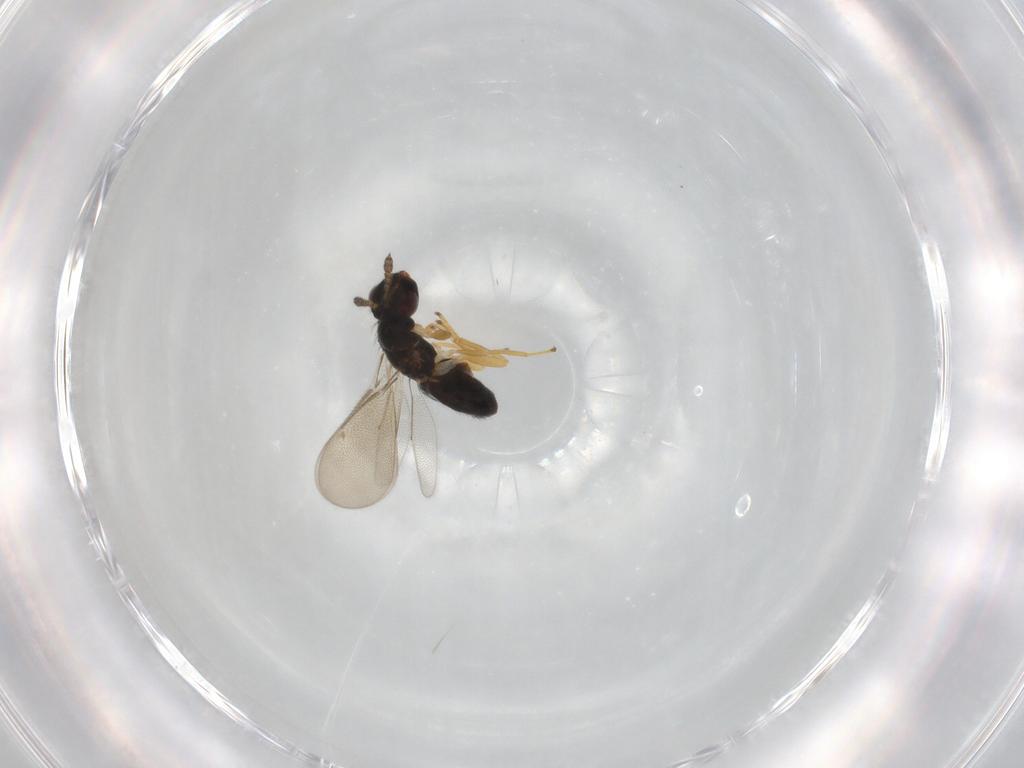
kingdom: Animalia
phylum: Arthropoda
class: Insecta
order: Hymenoptera
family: Eulophidae
